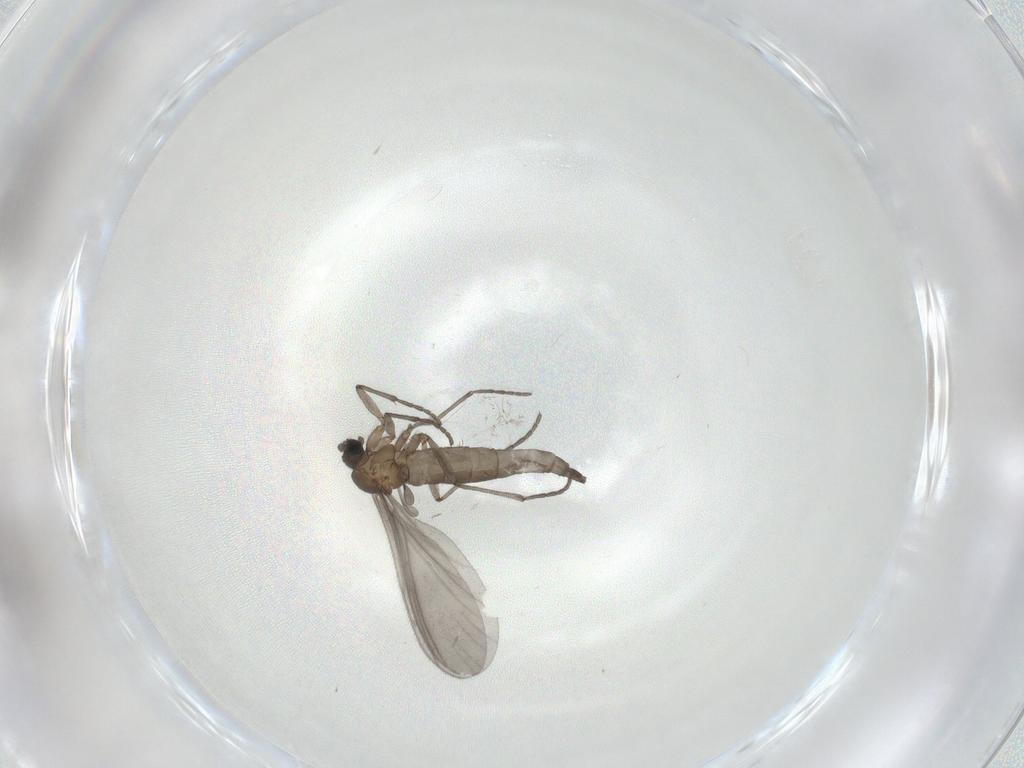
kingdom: Animalia
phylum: Arthropoda
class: Insecta
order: Diptera
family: Sciaridae
